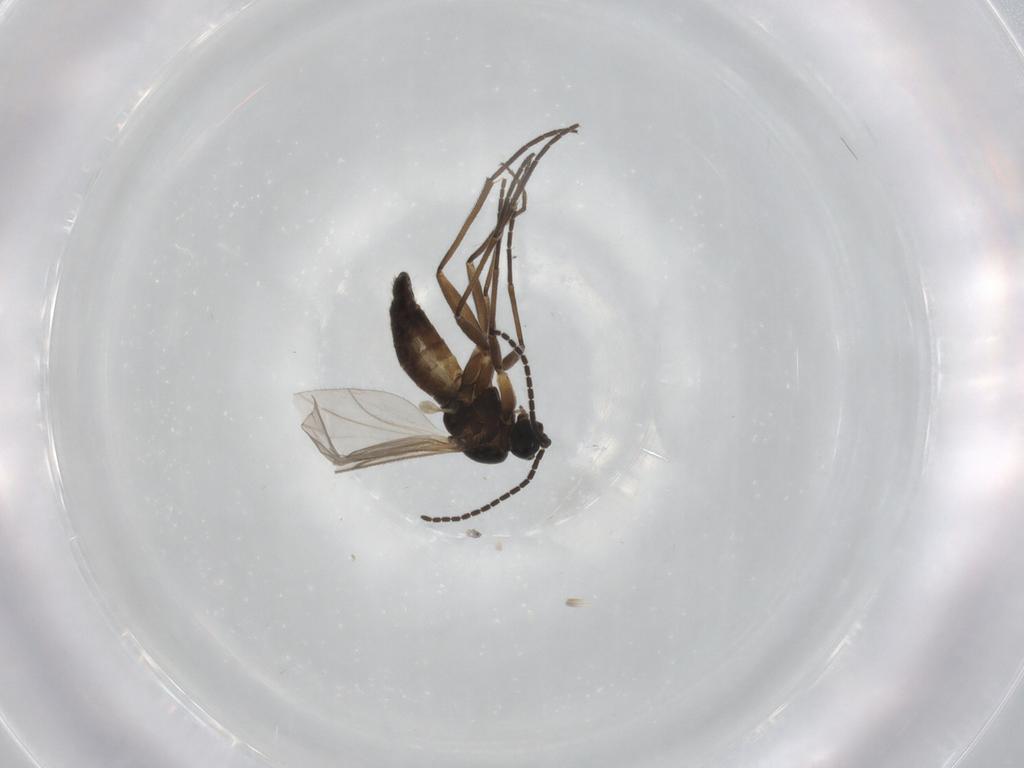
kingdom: Animalia
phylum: Arthropoda
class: Insecta
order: Diptera
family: Sciaridae
